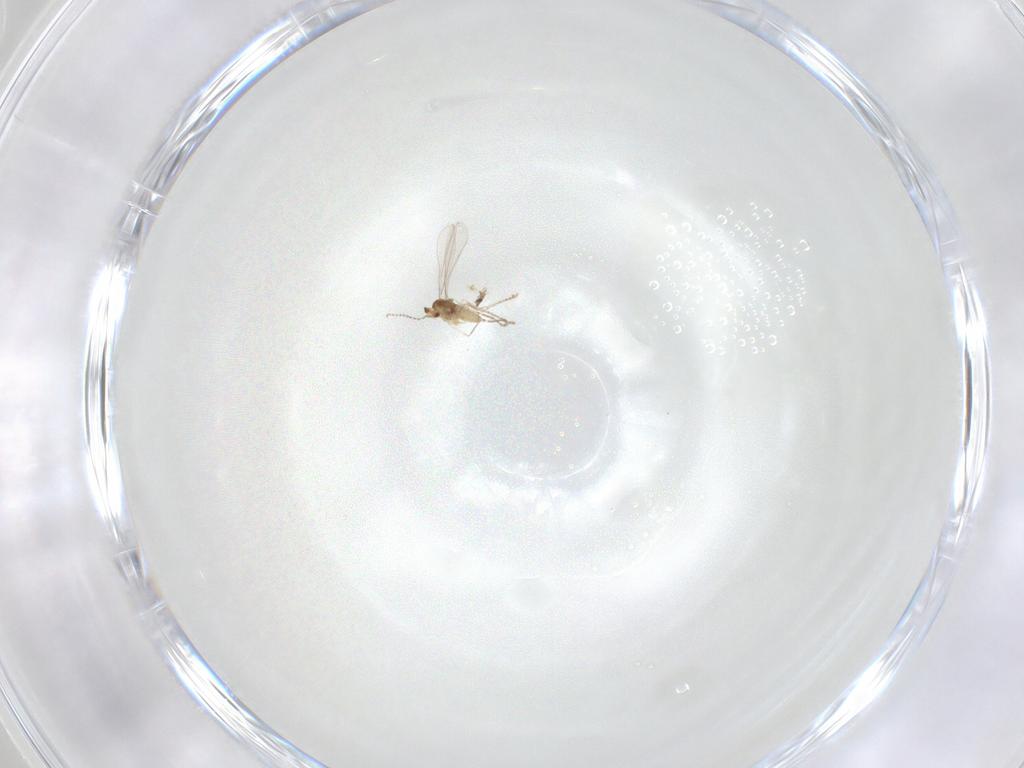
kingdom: Animalia
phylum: Arthropoda
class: Insecta
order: Diptera
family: Cecidomyiidae
